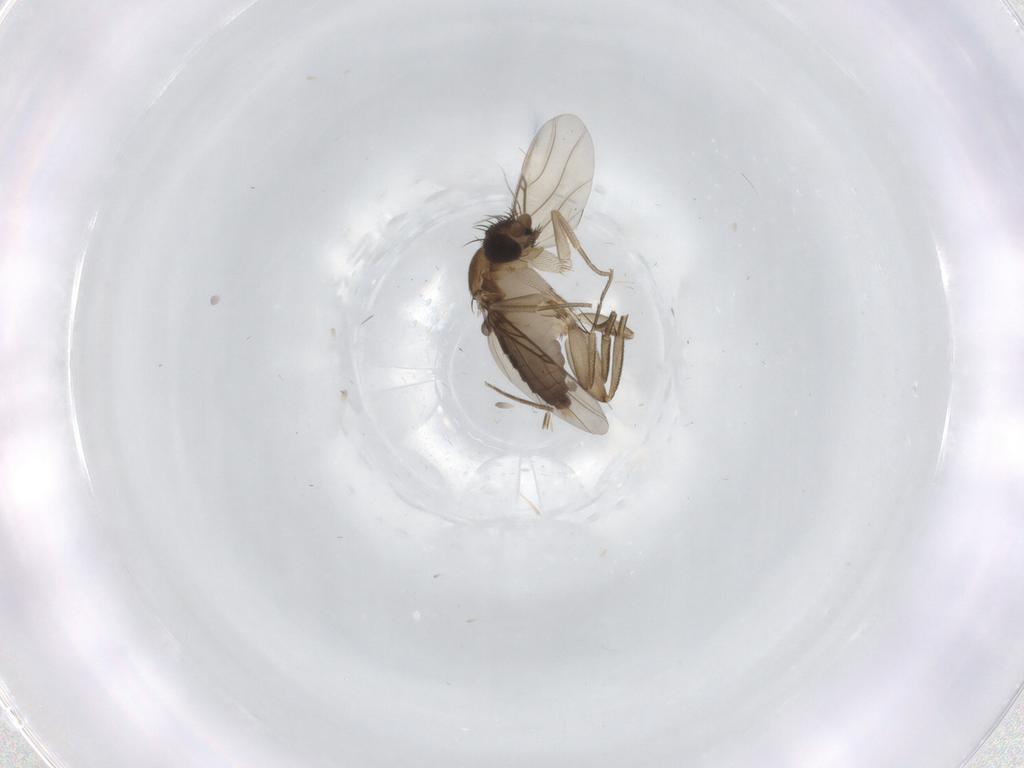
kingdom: Animalia
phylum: Arthropoda
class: Insecta
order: Diptera
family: Phoridae
